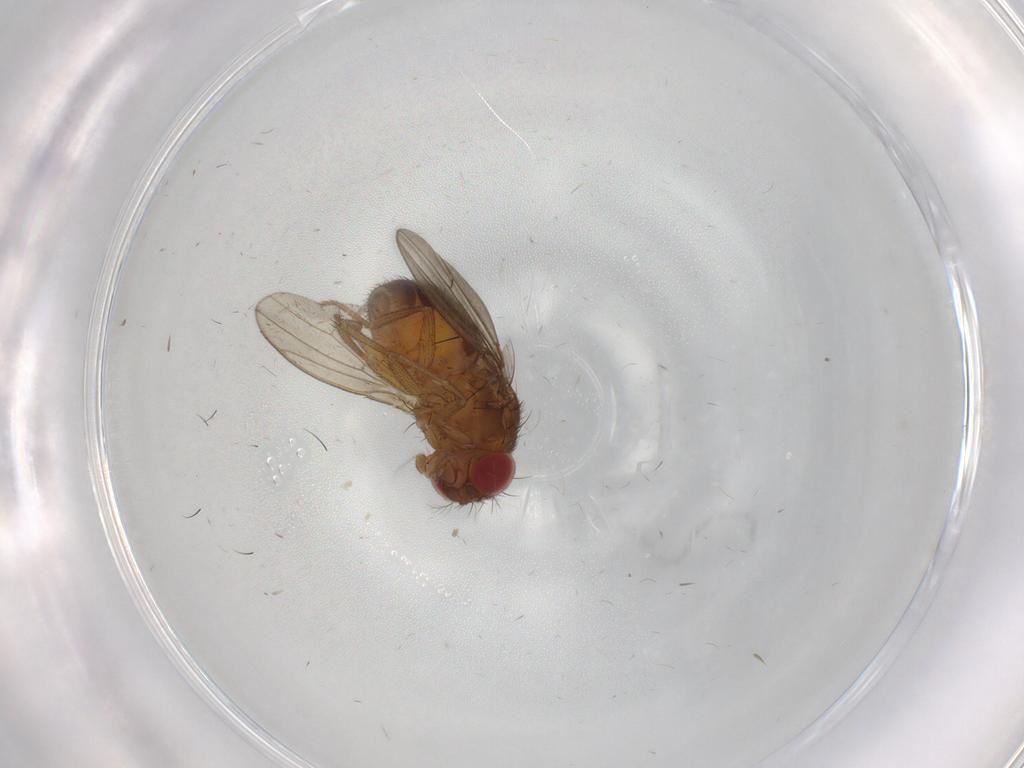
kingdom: Animalia
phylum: Arthropoda
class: Insecta
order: Diptera
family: Drosophilidae
